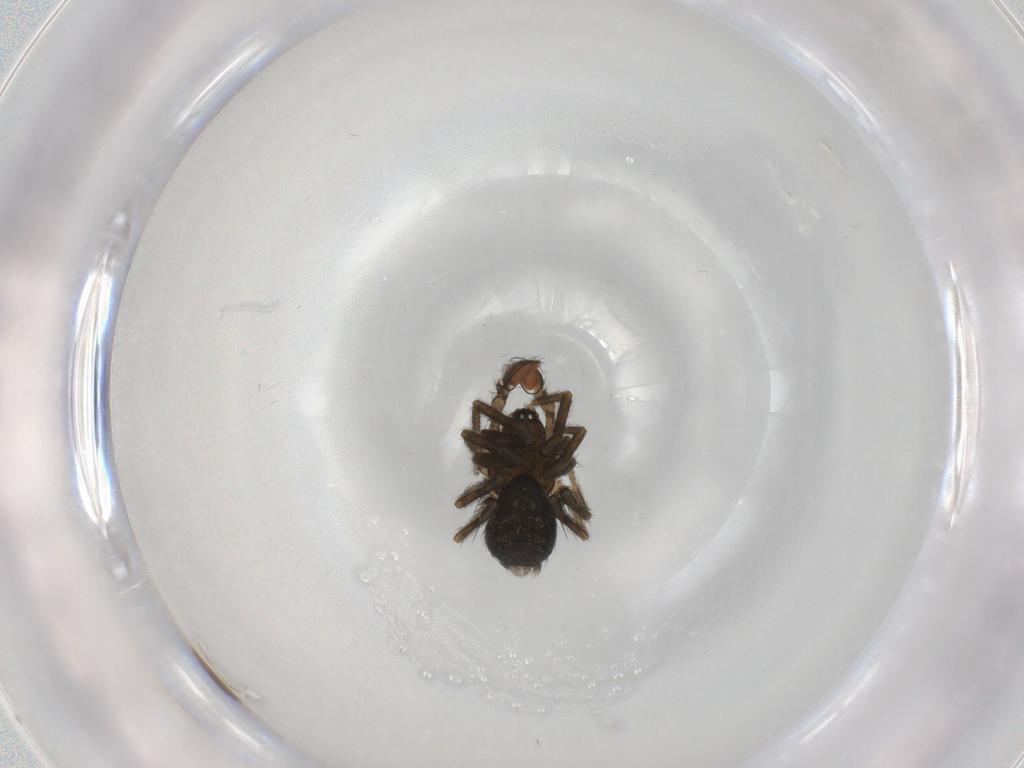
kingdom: Animalia
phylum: Arthropoda
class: Arachnida
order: Araneae
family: Hahniidae
